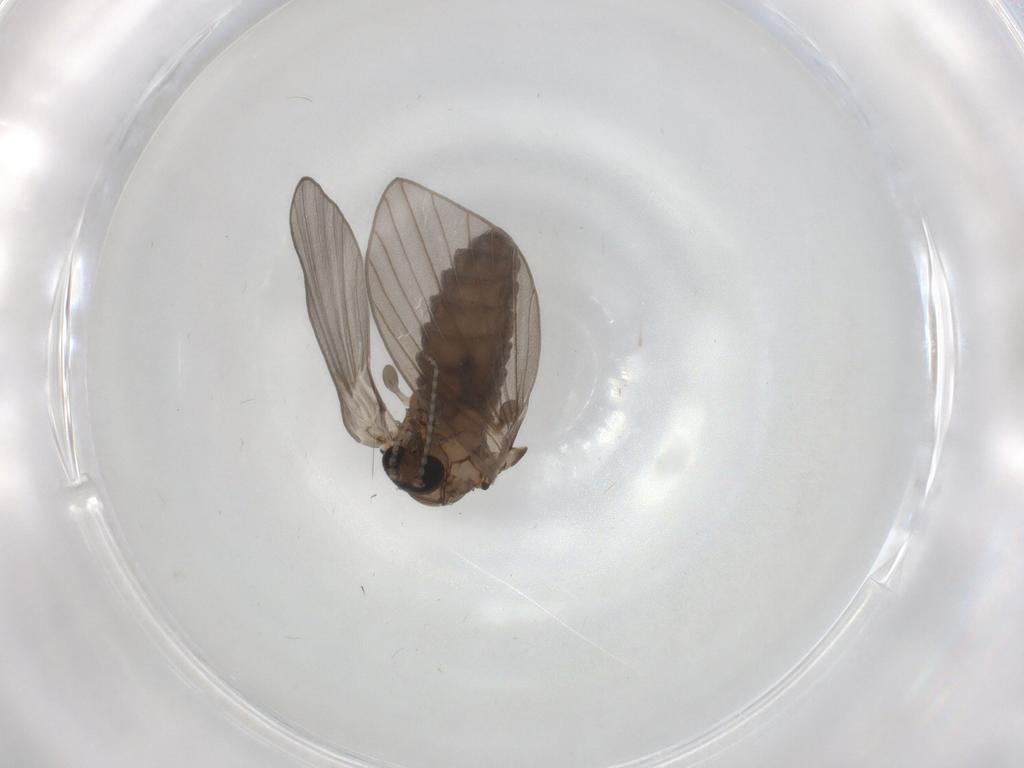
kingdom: Animalia
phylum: Arthropoda
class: Insecta
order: Diptera
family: Phoridae
